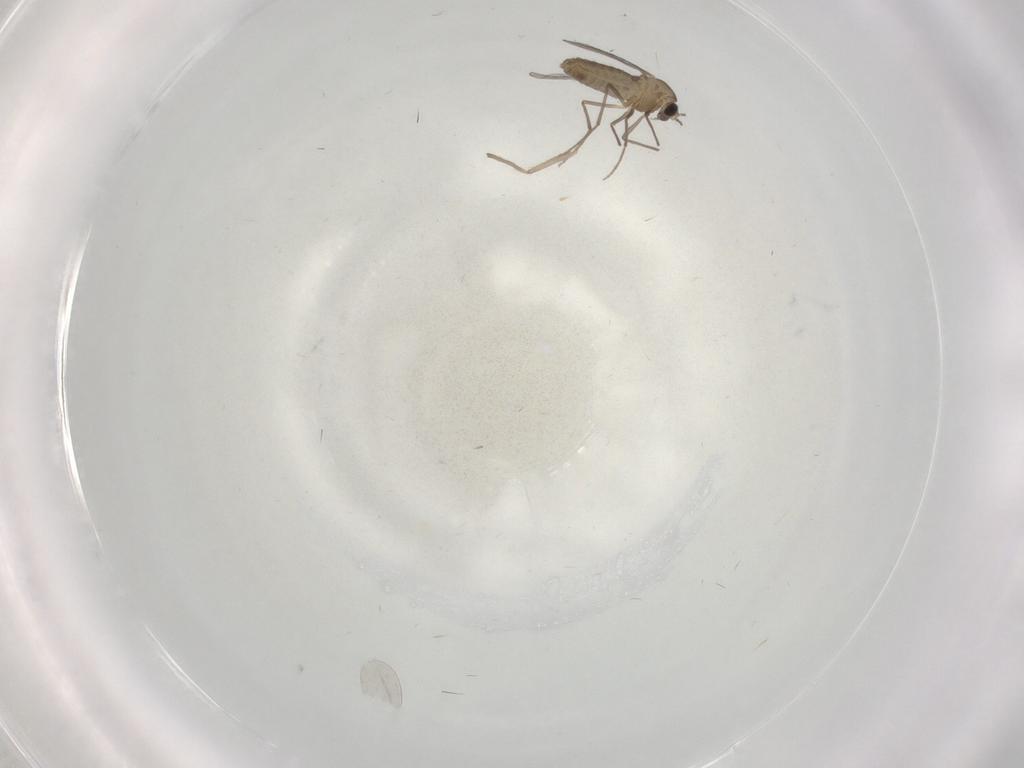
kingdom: Animalia
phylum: Arthropoda
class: Insecta
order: Diptera
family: Chironomidae
